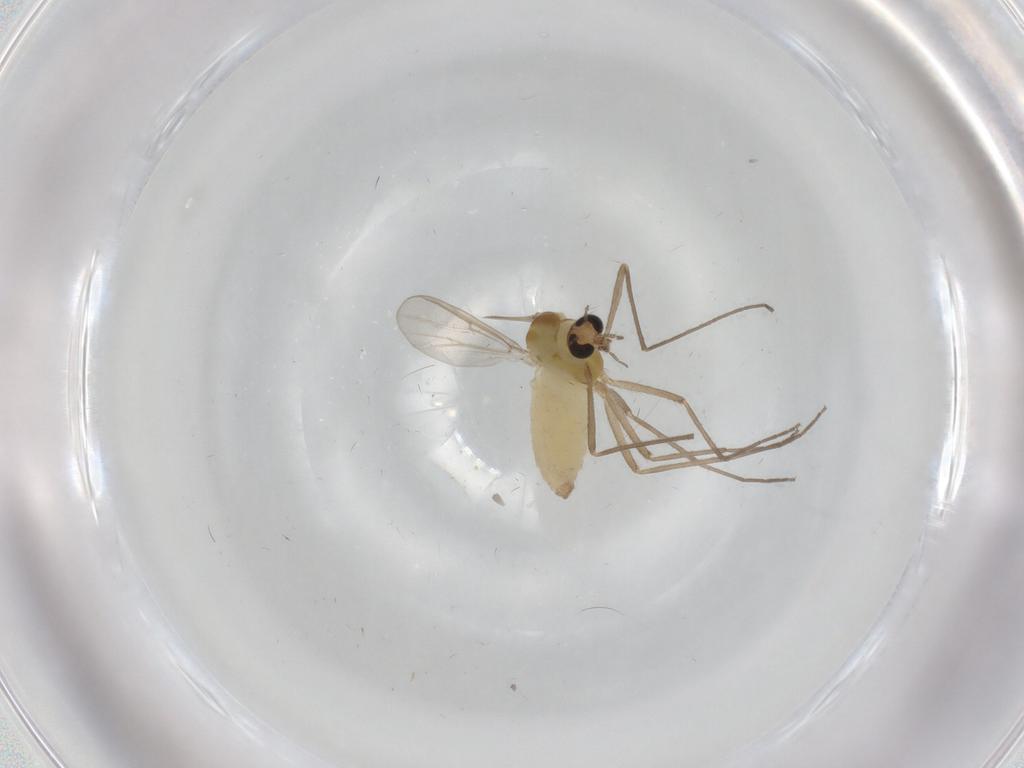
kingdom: Animalia
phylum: Arthropoda
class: Insecta
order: Diptera
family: Chironomidae
